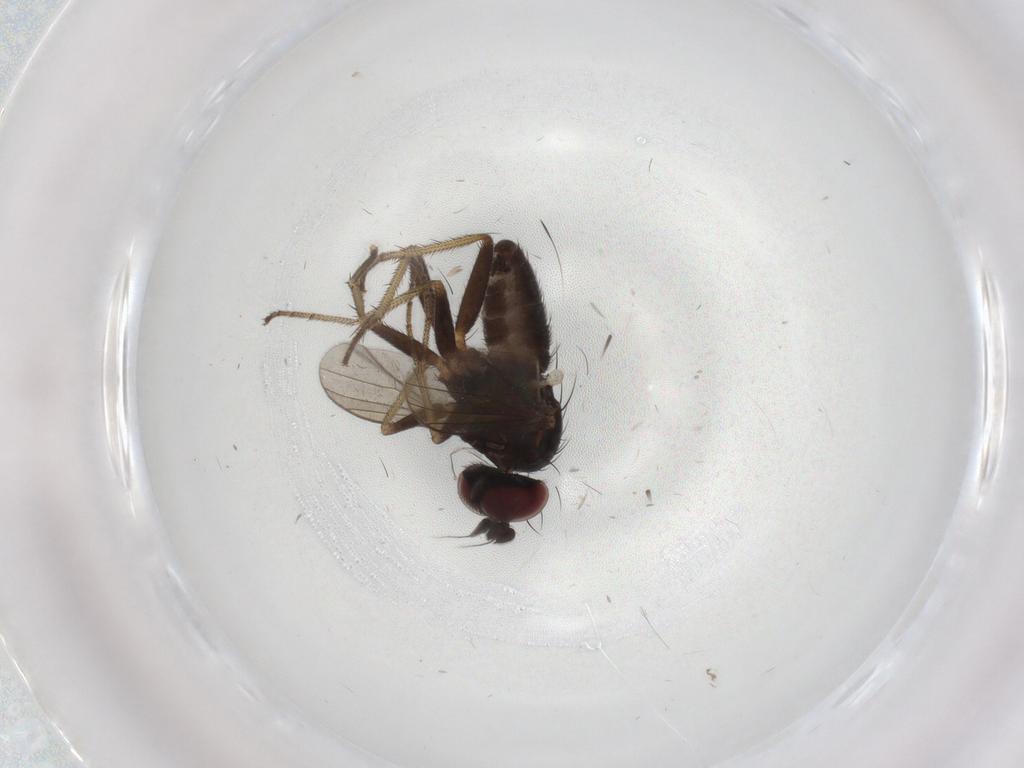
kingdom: Animalia
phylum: Arthropoda
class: Insecta
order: Diptera
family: Dolichopodidae
